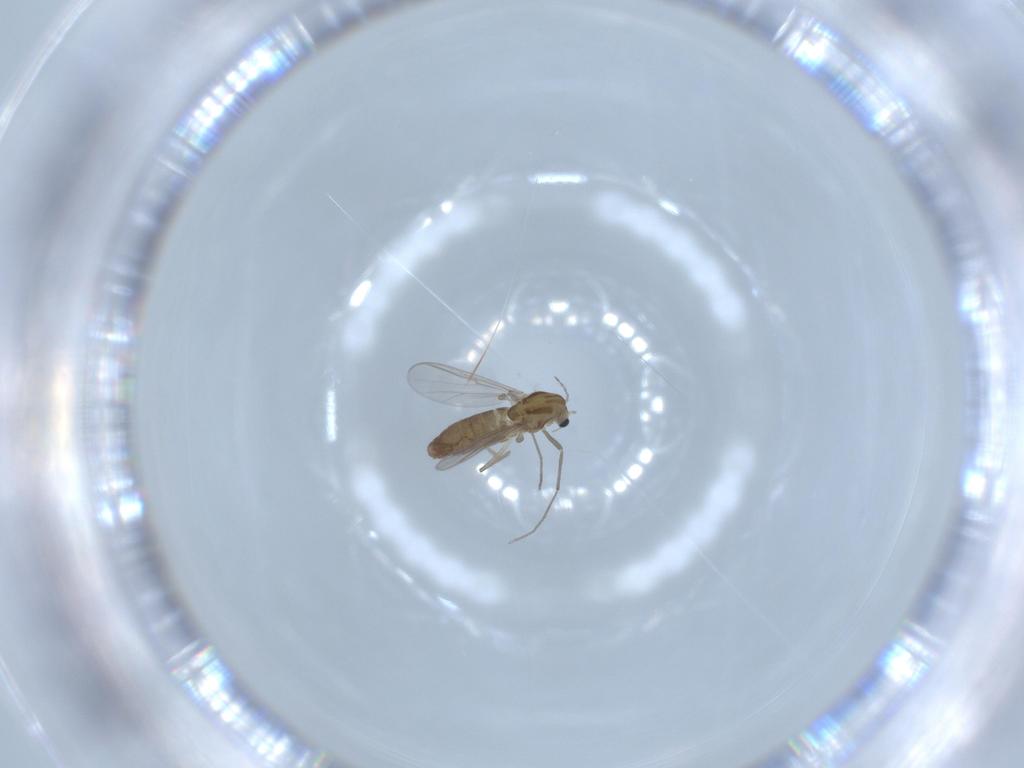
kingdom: Animalia
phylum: Arthropoda
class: Insecta
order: Diptera
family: Chironomidae
